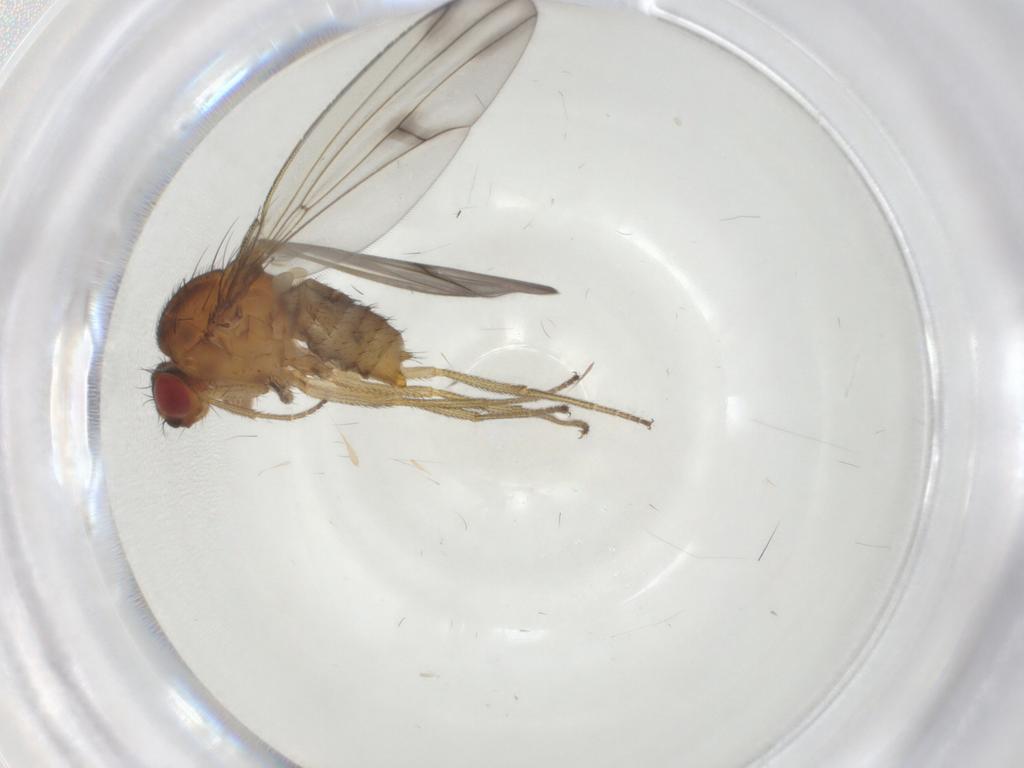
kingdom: Animalia
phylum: Arthropoda
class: Insecta
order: Diptera
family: Drosophilidae
